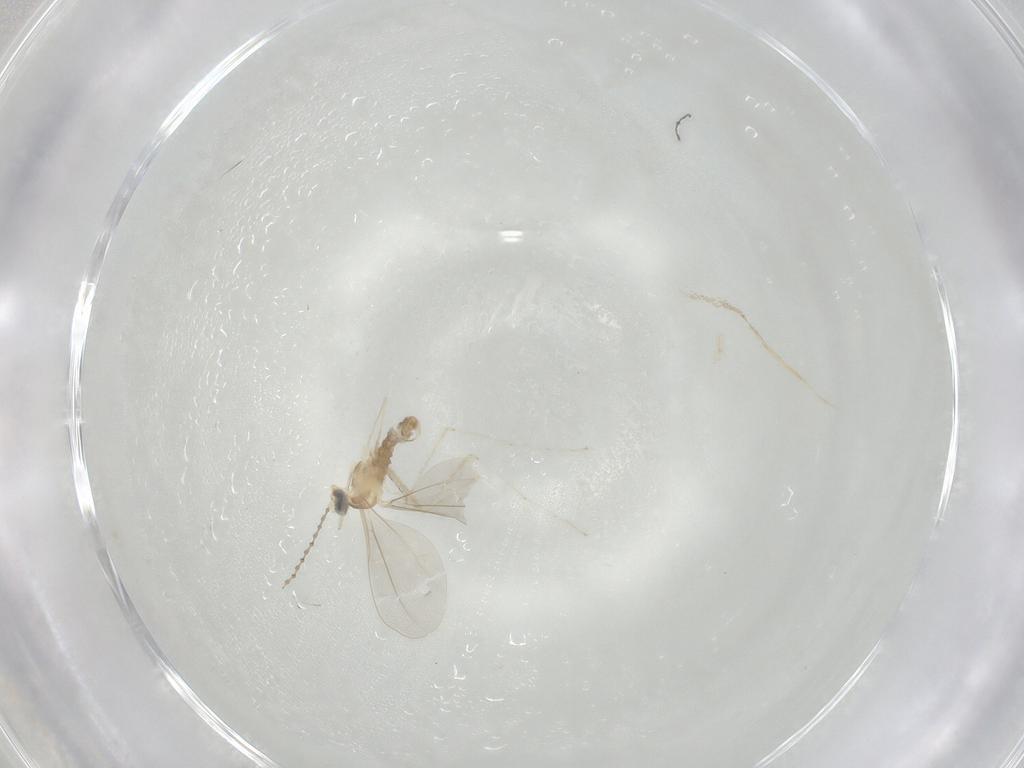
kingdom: Animalia
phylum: Arthropoda
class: Insecta
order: Diptera
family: Cecidomyiidae
